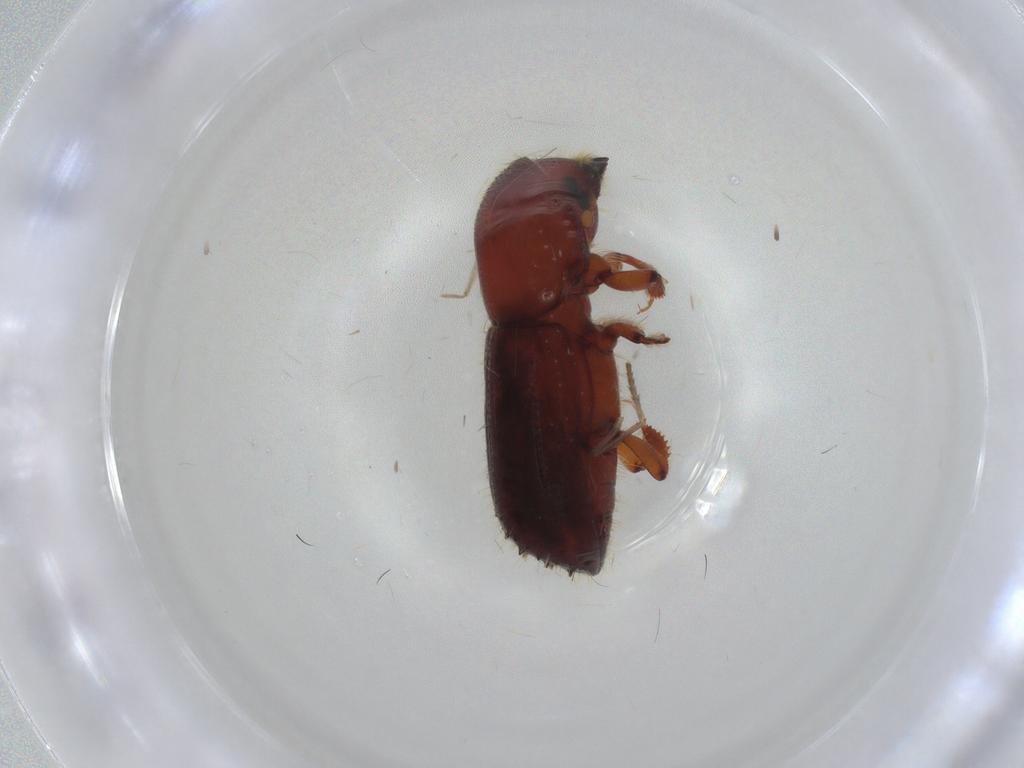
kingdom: Animalia
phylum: Arthropoda
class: Insecta
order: Coleoptera
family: Curculionidae
